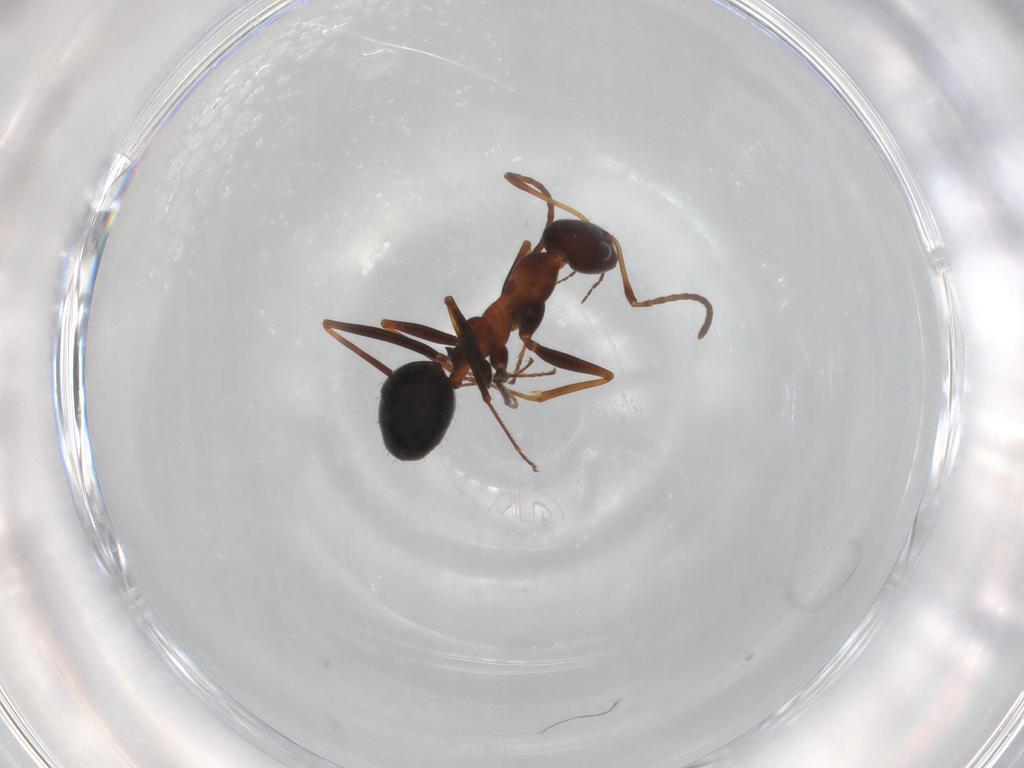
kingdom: Animalia
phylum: Arthropoda
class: Insecta
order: Hymenoptera
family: Formicidae
